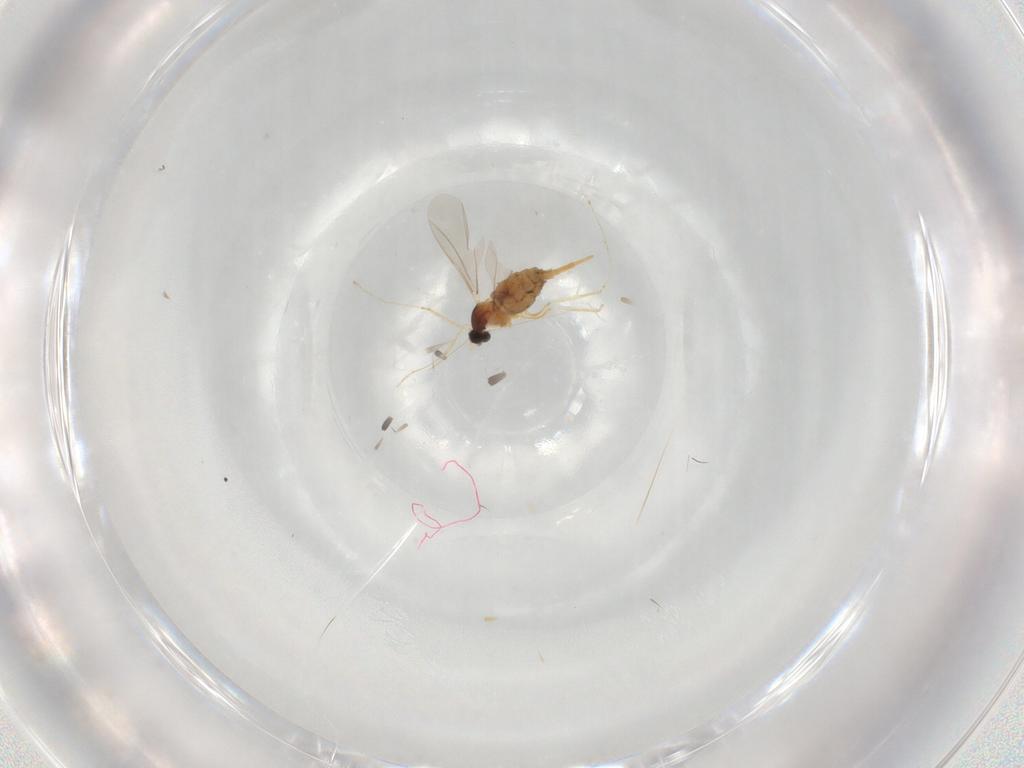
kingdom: Animalia
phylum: Arthropoda
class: Insecta
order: Diptera
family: Cecidomyiidae
